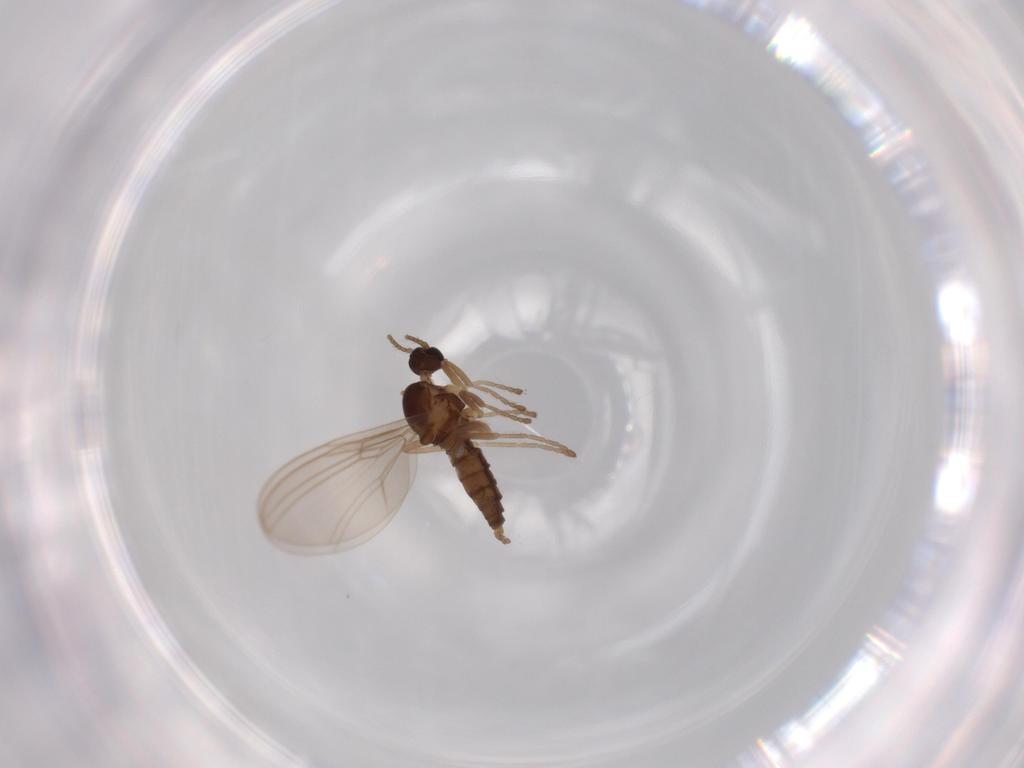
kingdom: Animalia
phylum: Arthropoda
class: Insecta
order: Diptera
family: Cecidomyiidae
